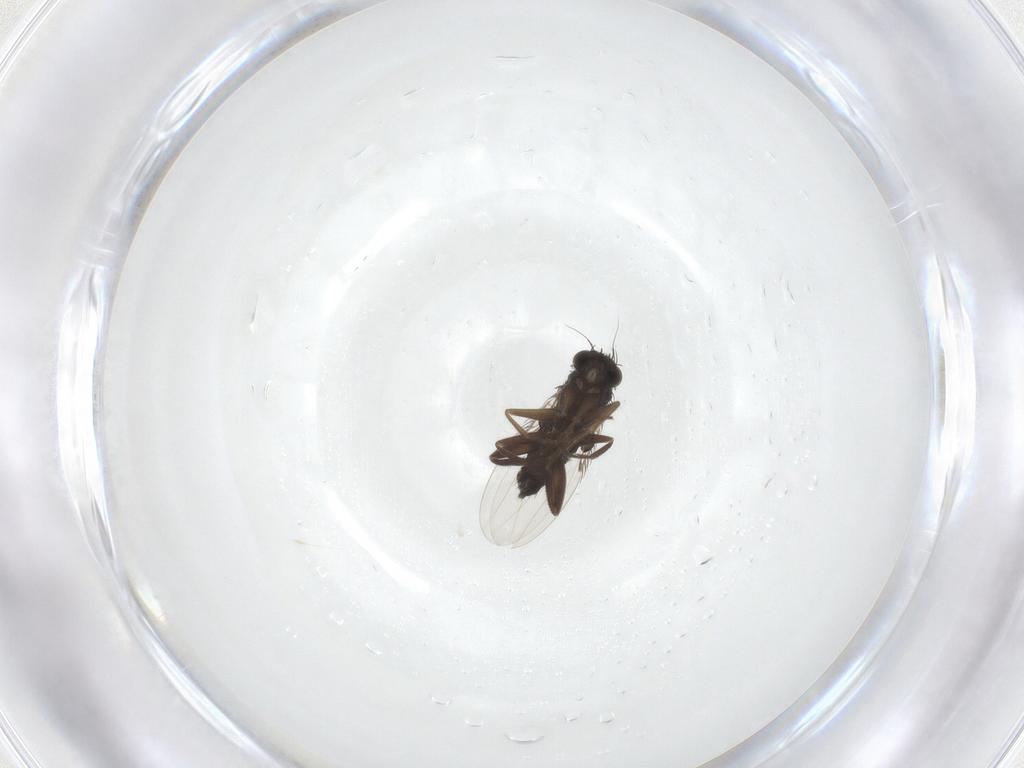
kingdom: Animalia
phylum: Arthropoda
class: Insecta
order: Diptera
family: Phoridae
